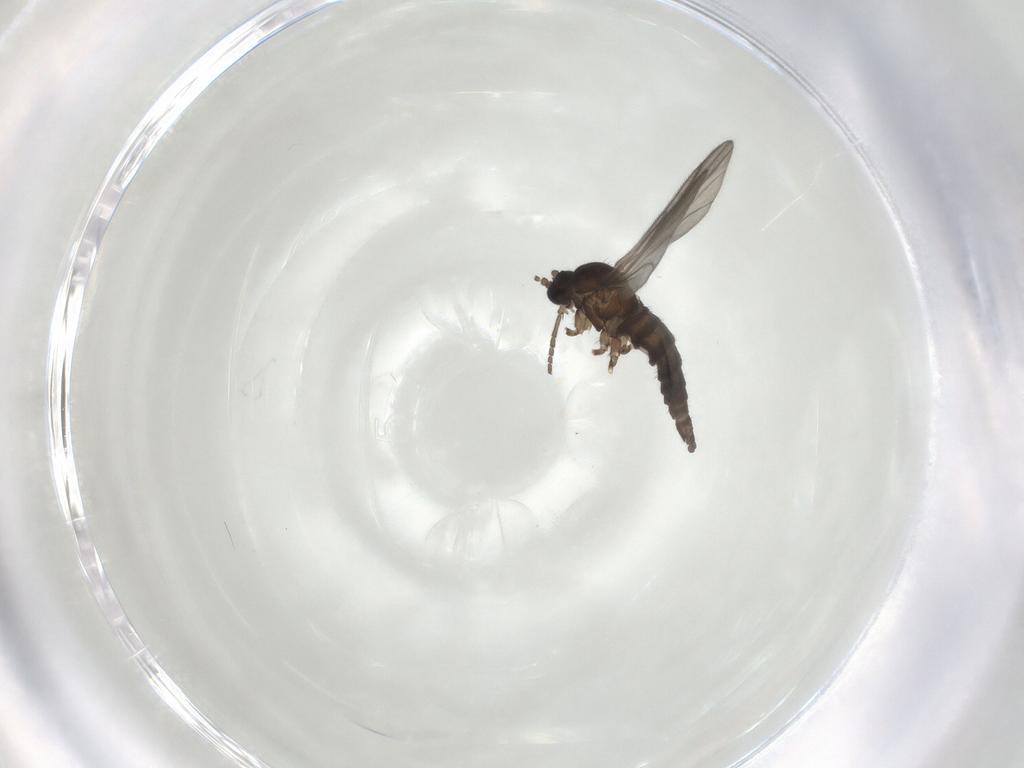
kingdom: Animalia
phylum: Arthropoda
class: Insecta
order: Diptera
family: Sciaridae
